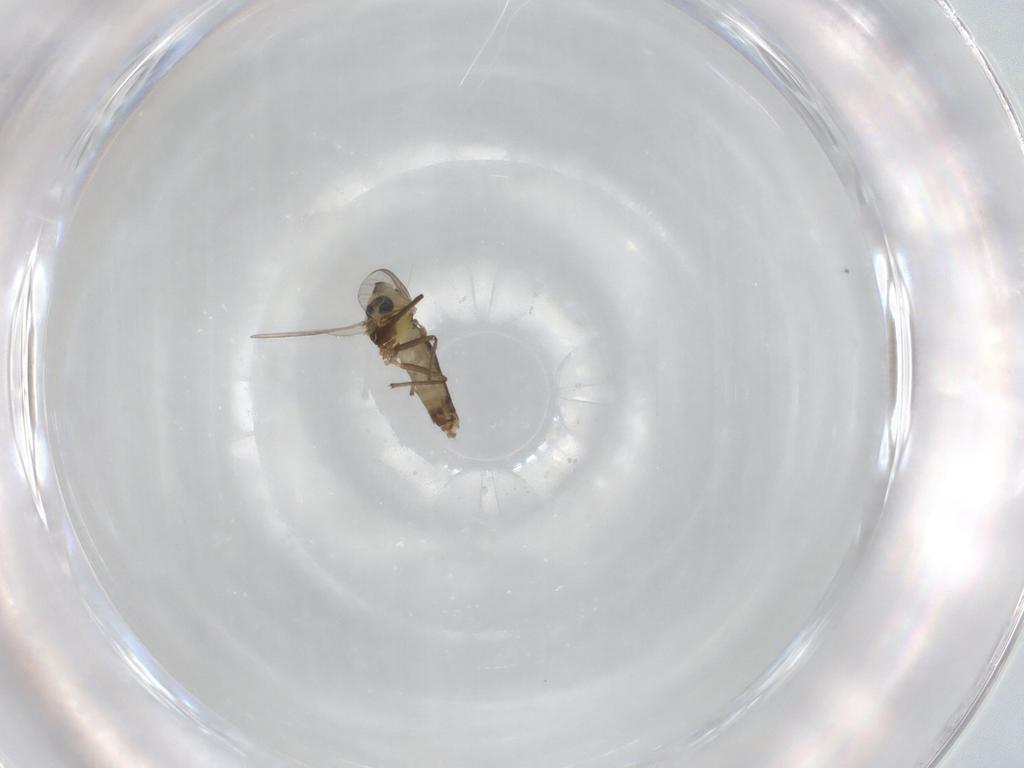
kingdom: Animalia
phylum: Arthropoda
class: Insecta
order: Diptera
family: Chironomidae
